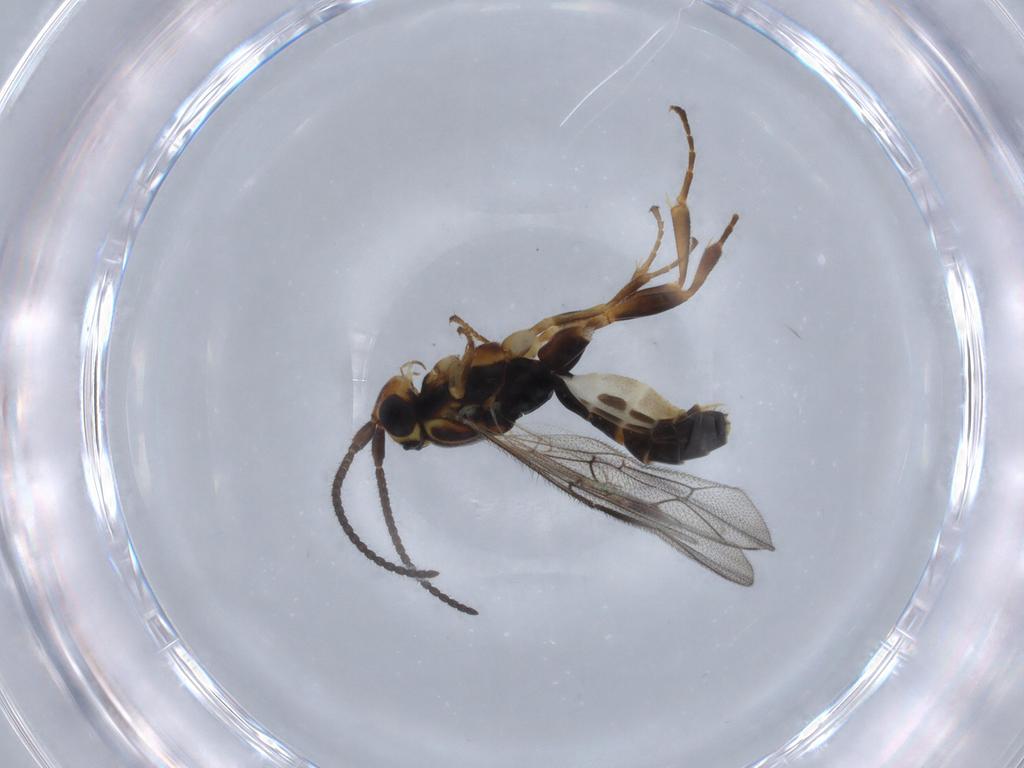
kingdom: Animalia
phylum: Arthropoda
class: Insecta
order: Hymenoptera
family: Ichneumonidae
